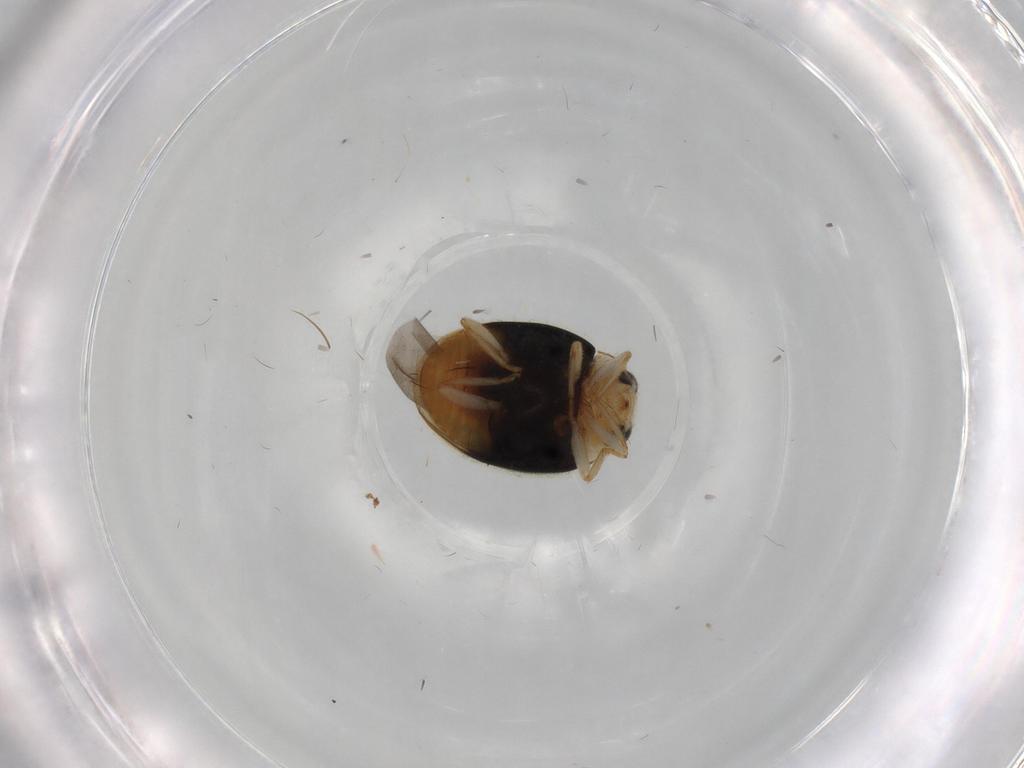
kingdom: Animalia
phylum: Arthropoda
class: Insecta
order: Coleoptera
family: Coccinellidae
